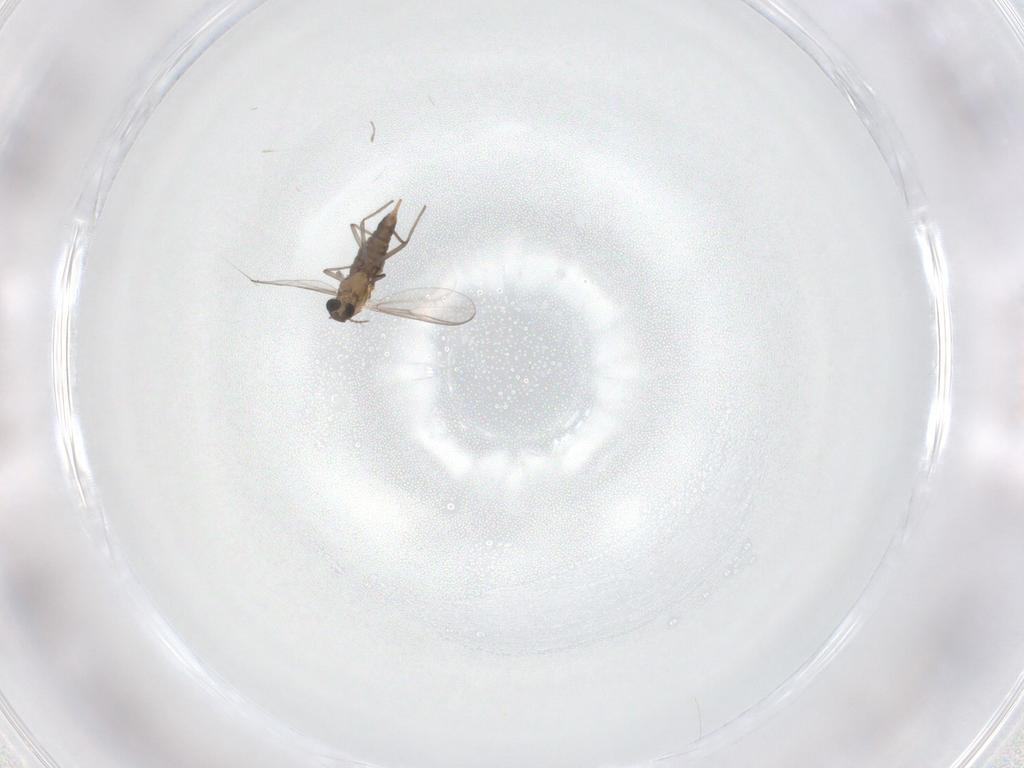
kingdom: Animalia
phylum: Arthropoda
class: Insecta
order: Diptera
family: Chironomidae
